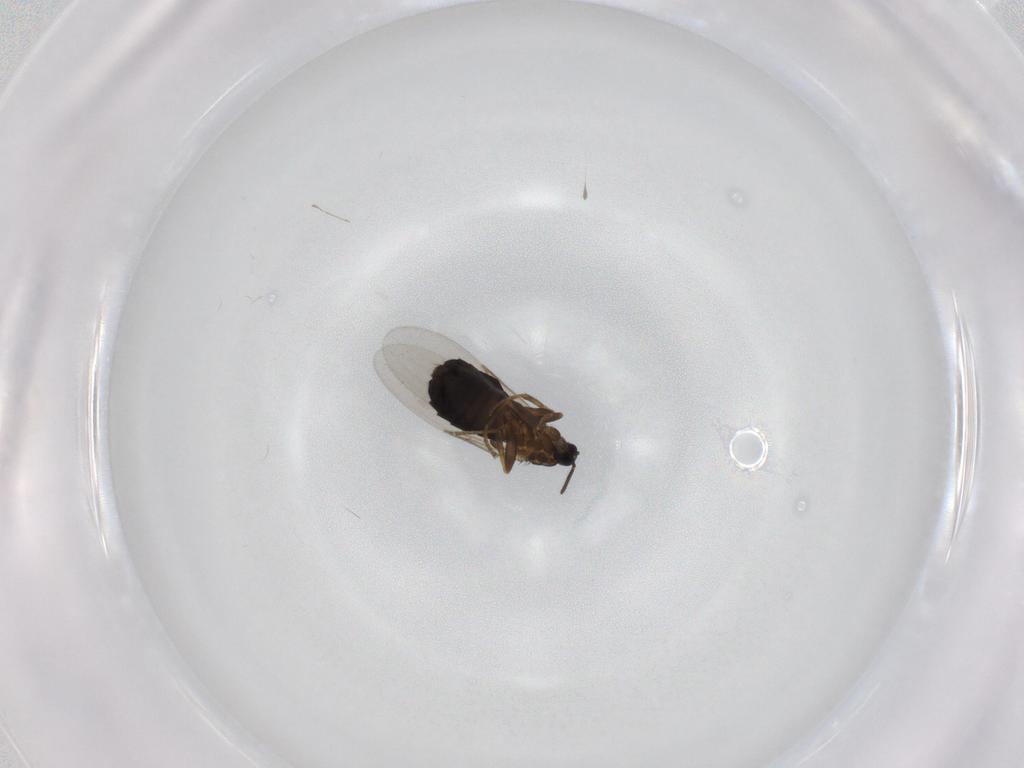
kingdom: Animalia
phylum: Arthropoda
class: Insecta
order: Diptera
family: Scatopsidae
